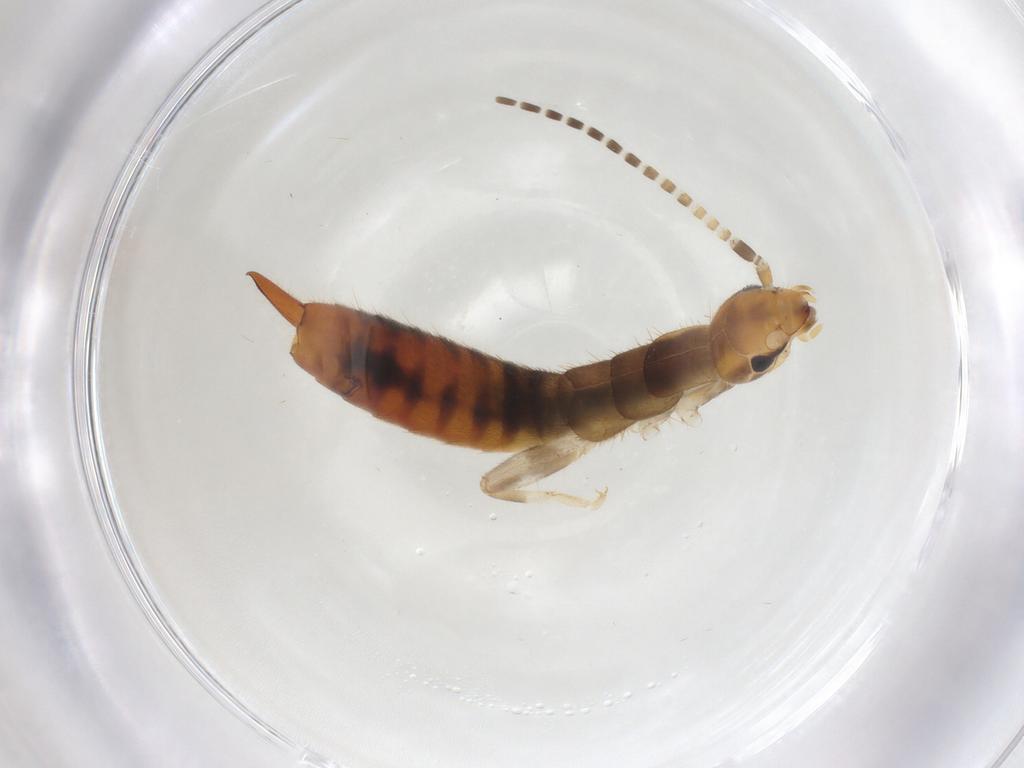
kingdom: Animalia
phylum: Arthropoda
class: Insecta
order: Dermaptera
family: Forficulidae
